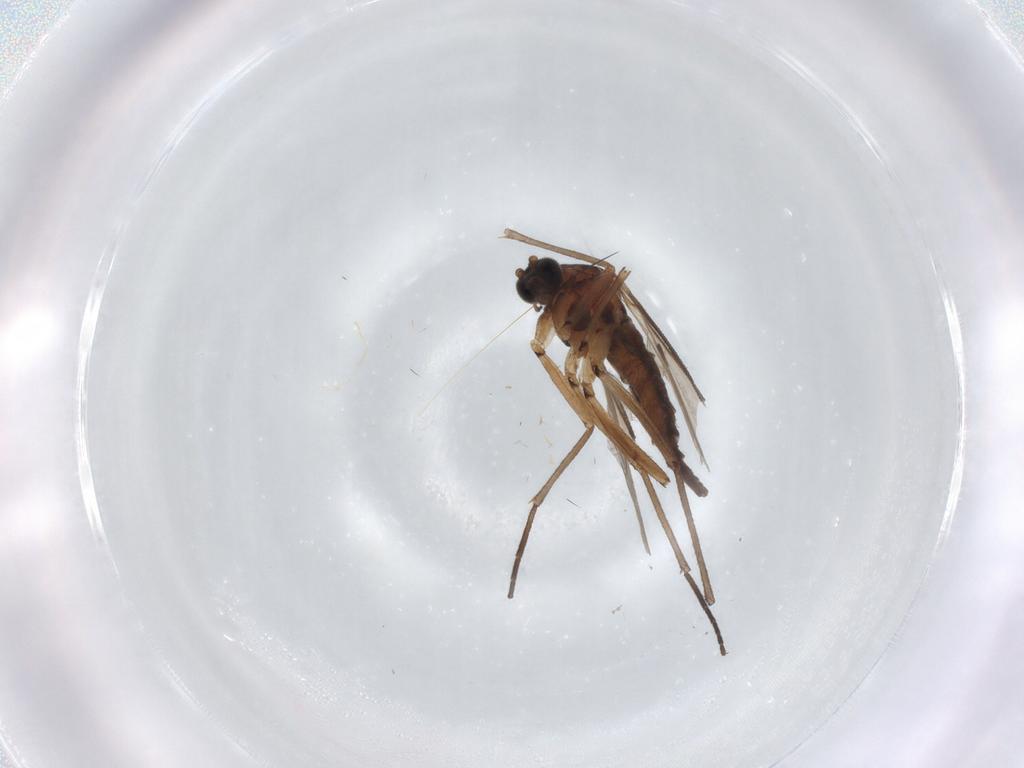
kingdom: Animalia
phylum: Arthropoda
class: Insecta
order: Diptera
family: Sciaridae
